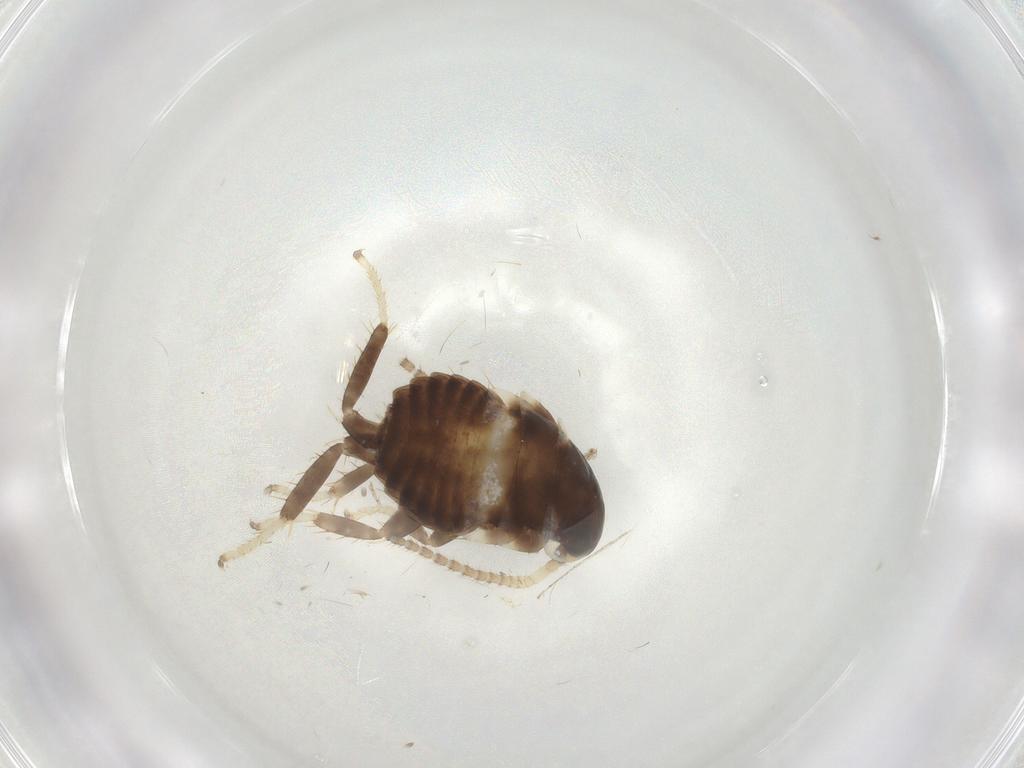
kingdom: Animalia
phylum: Arthropoda
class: Insecta
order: Blattodea
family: Blaberidae
